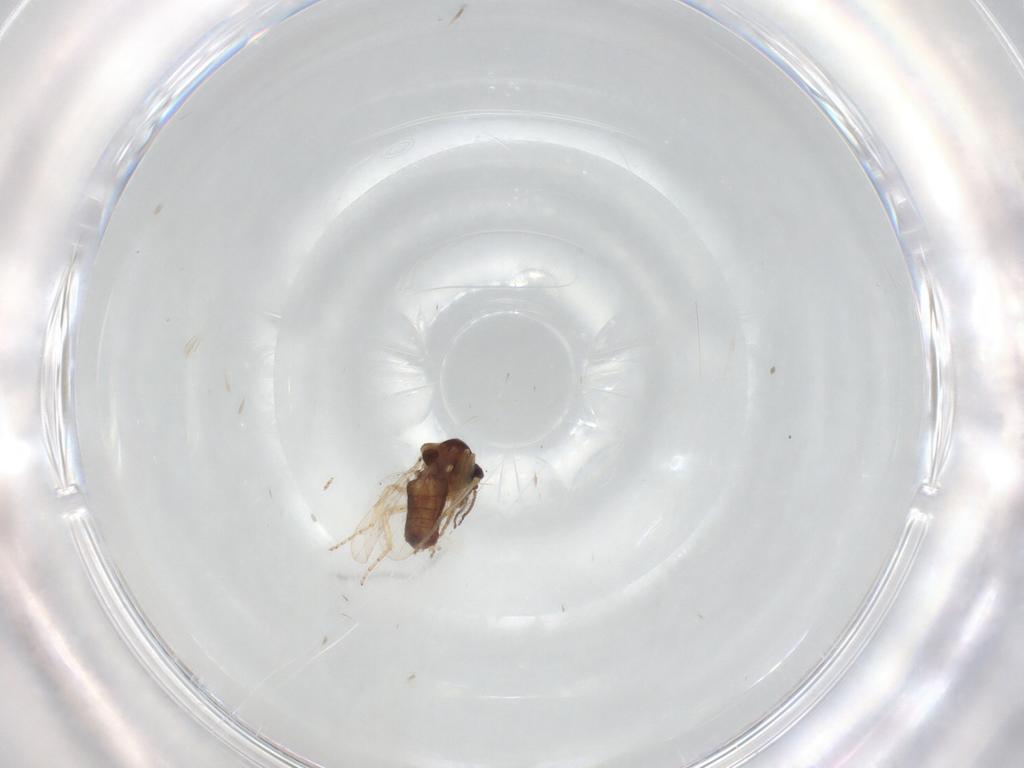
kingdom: Animalia
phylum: Arthropoda
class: Insecta
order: Diptera
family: Ceratopogonidae
